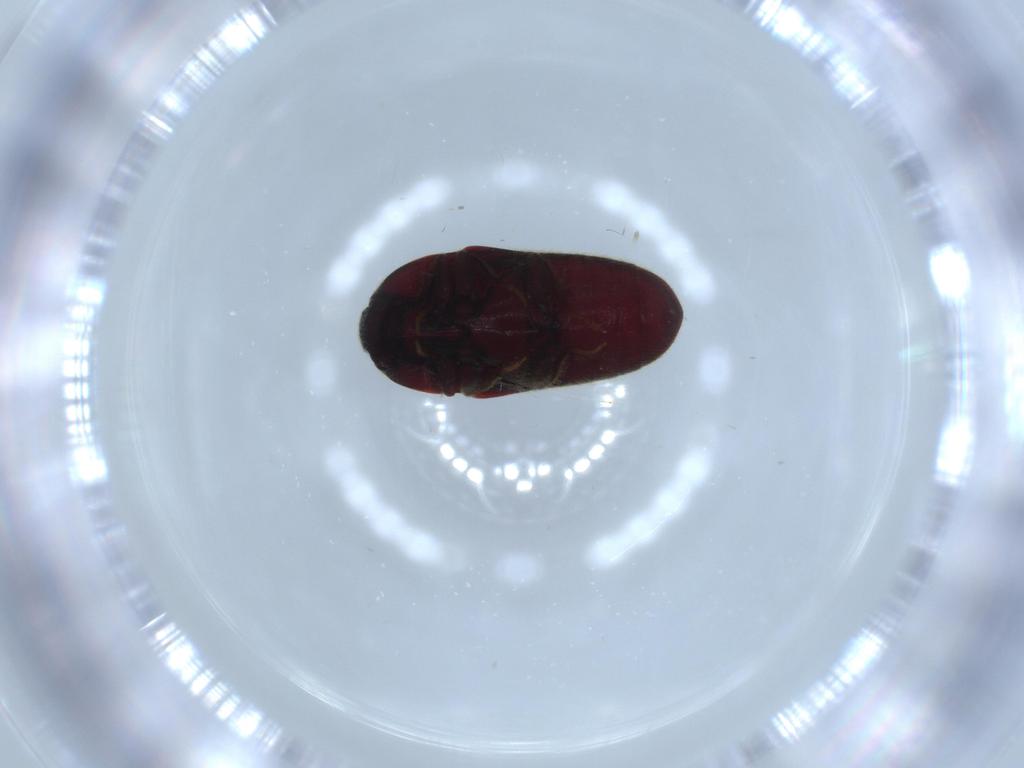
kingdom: Animalia
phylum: Arthropoda
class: Insecta
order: Coleoptera
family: Throscidae
